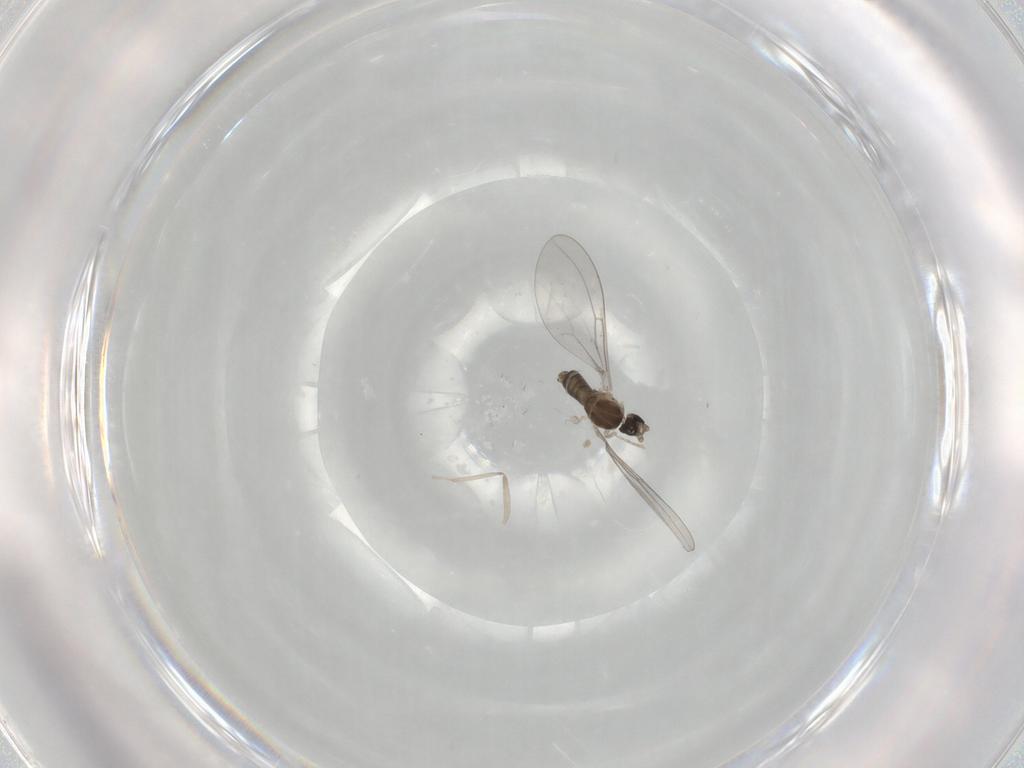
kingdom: Animalia
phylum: Arthropoda
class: Insecta
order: Diptera
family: Cecidomyiidae
